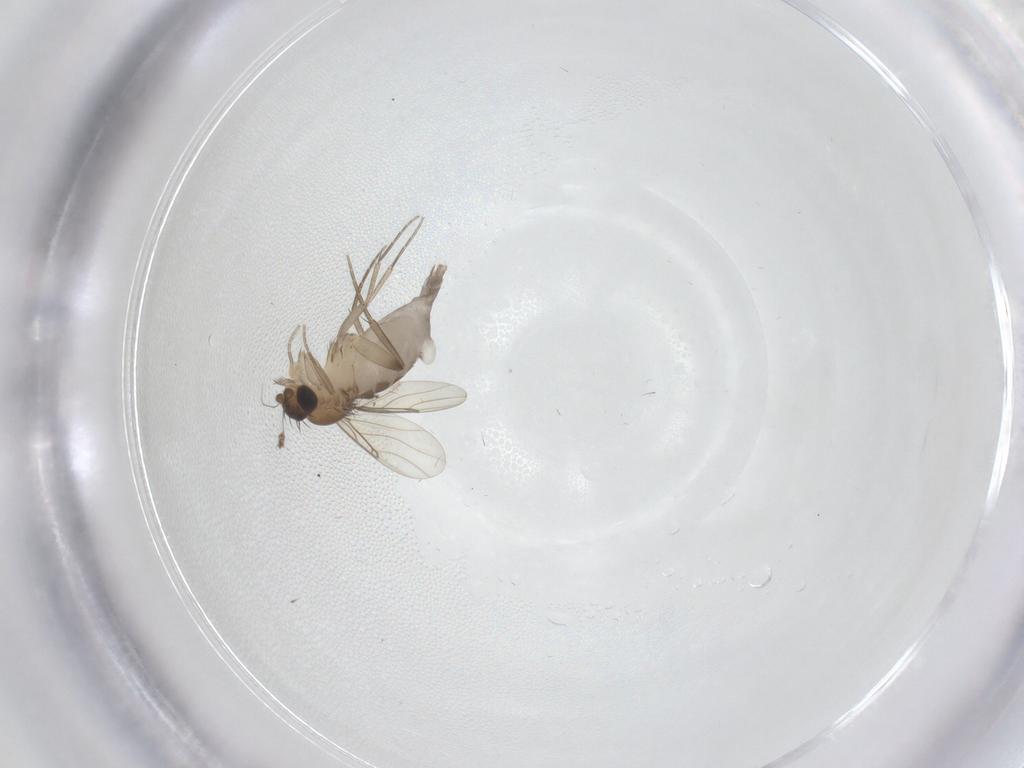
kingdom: Animalia
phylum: Arthropoda
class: Insecta
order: Diptera
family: Phoridae
